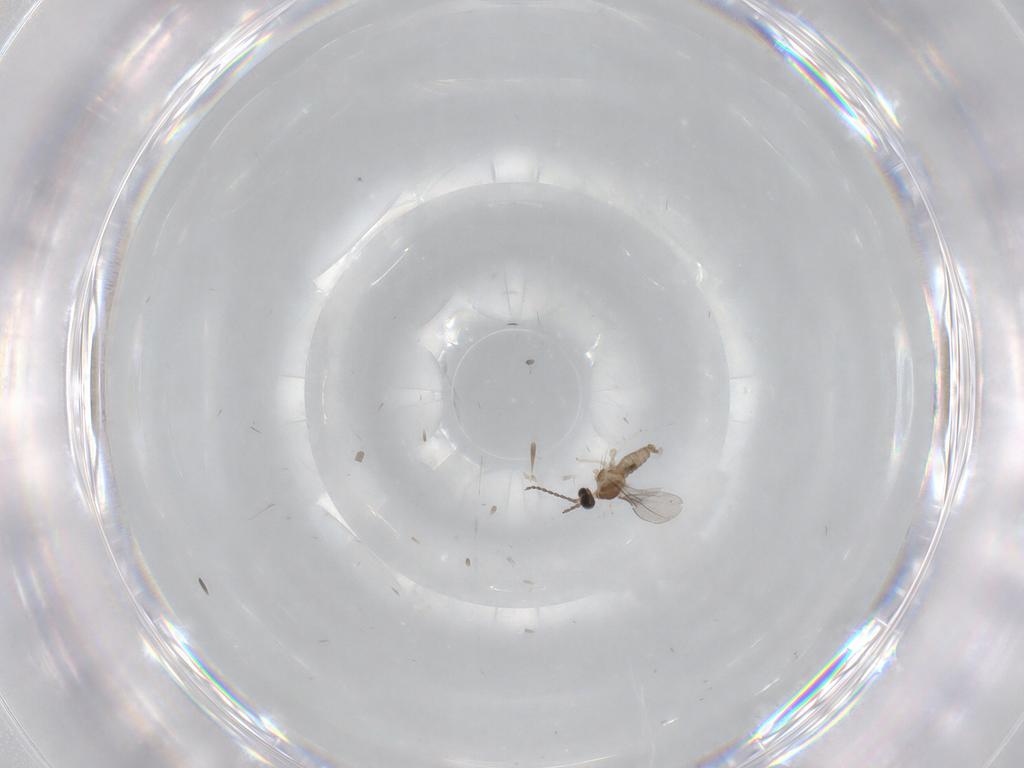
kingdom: Animalia
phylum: Arthropoda
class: Insecta
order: Diptera
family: Cecidomyiidae
